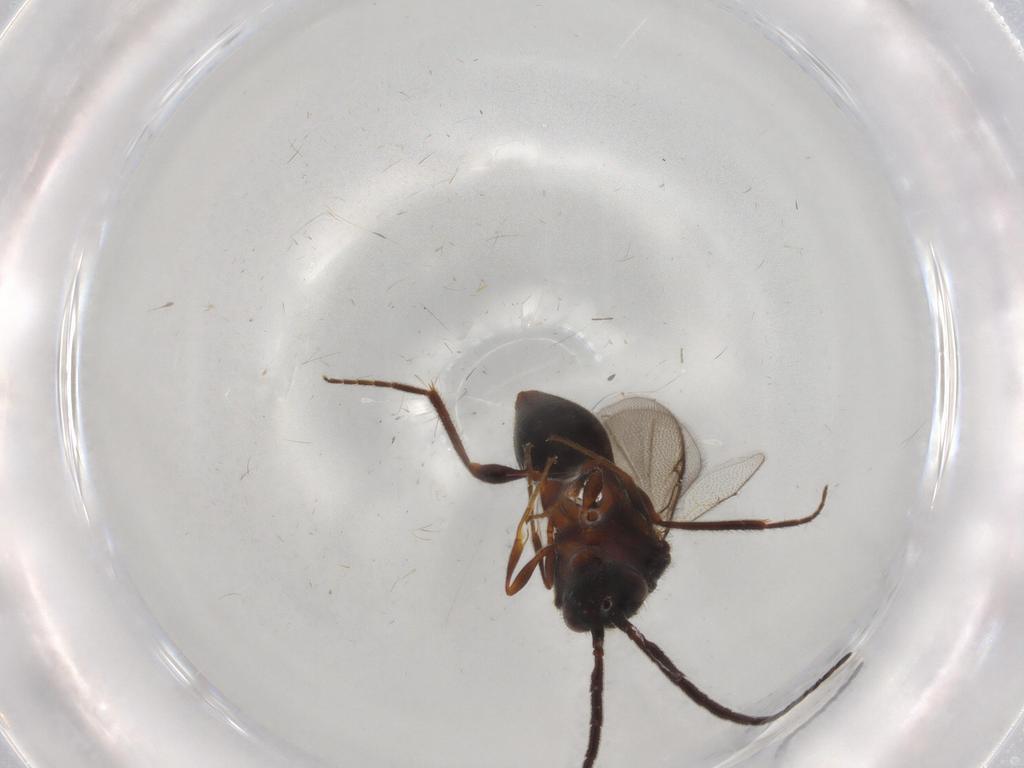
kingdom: Animalia
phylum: Arthropoda
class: Insecta
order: Hymenoptera
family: Diapriidae
